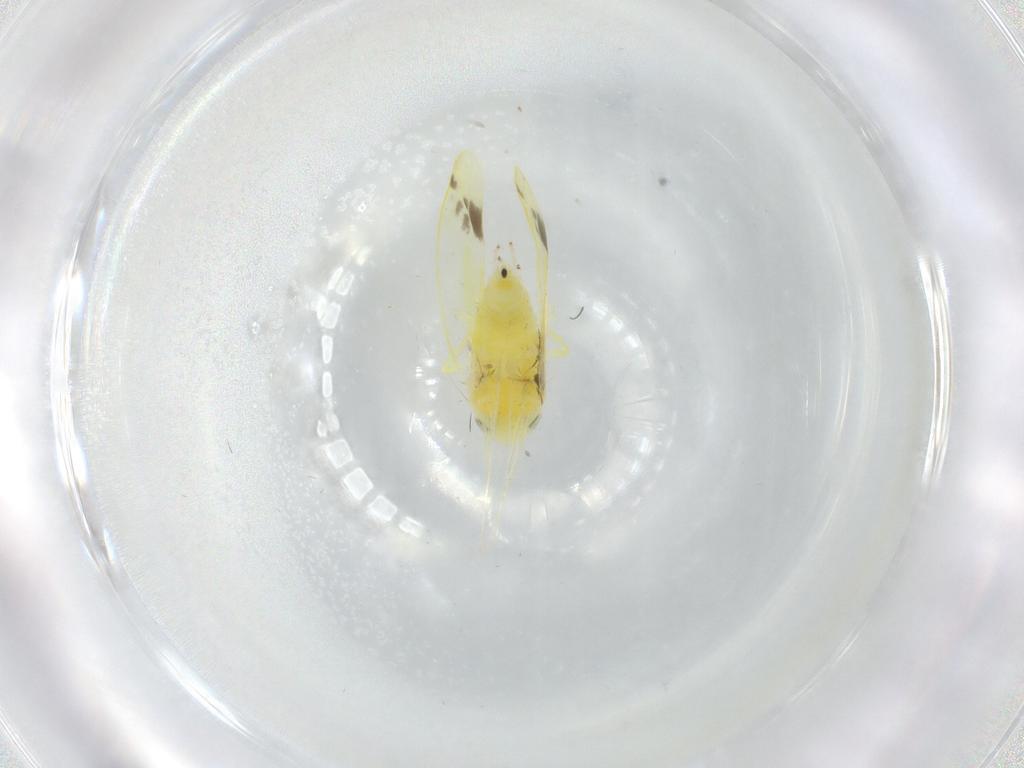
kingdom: Animalia
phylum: Arthropoda
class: Insecta
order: Hemiptera
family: Cicadellidae
